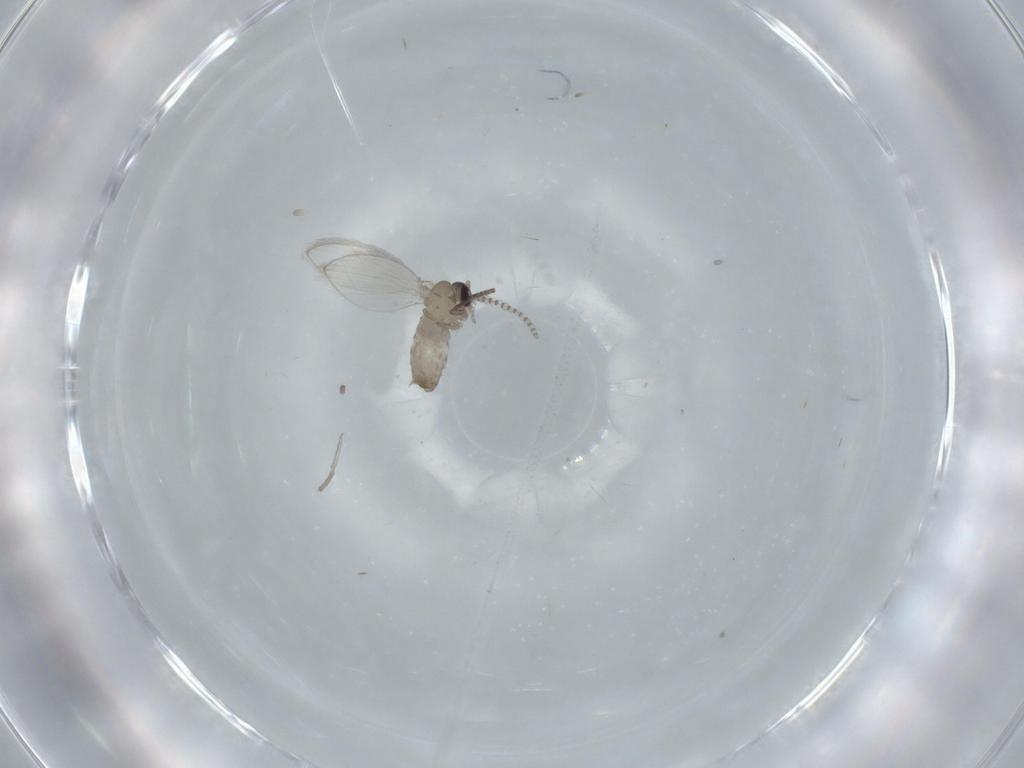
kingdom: Animalia
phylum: Arthropoda
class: Insecta
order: Diptera
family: Psychodidae
